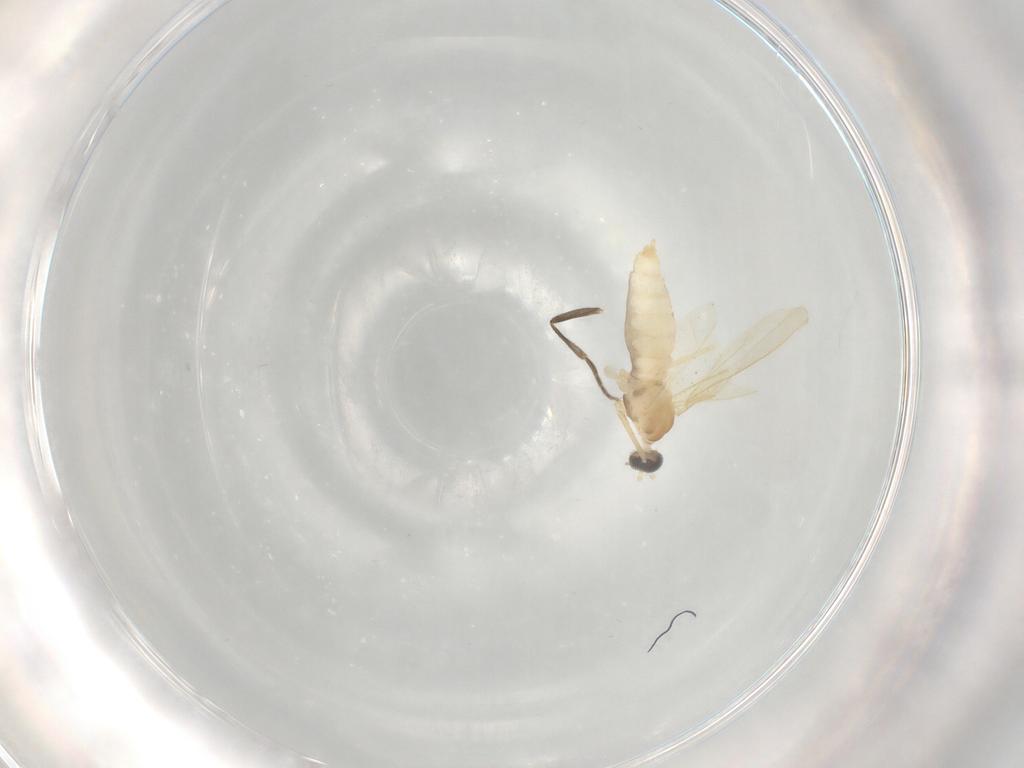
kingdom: Animalia
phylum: Arthropoda
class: Insecta
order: Diptera
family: Cecidomyiidae
